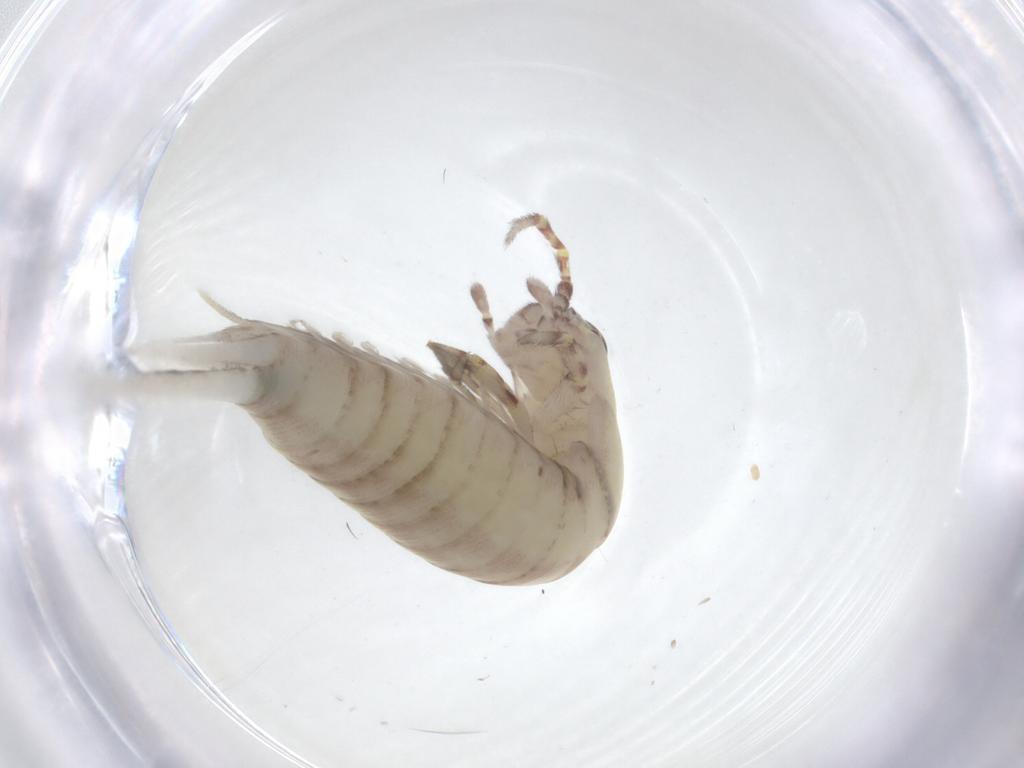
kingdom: Animalia
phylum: Arthropoda
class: Insecta
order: Archaeognatha
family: Meinertellidae
